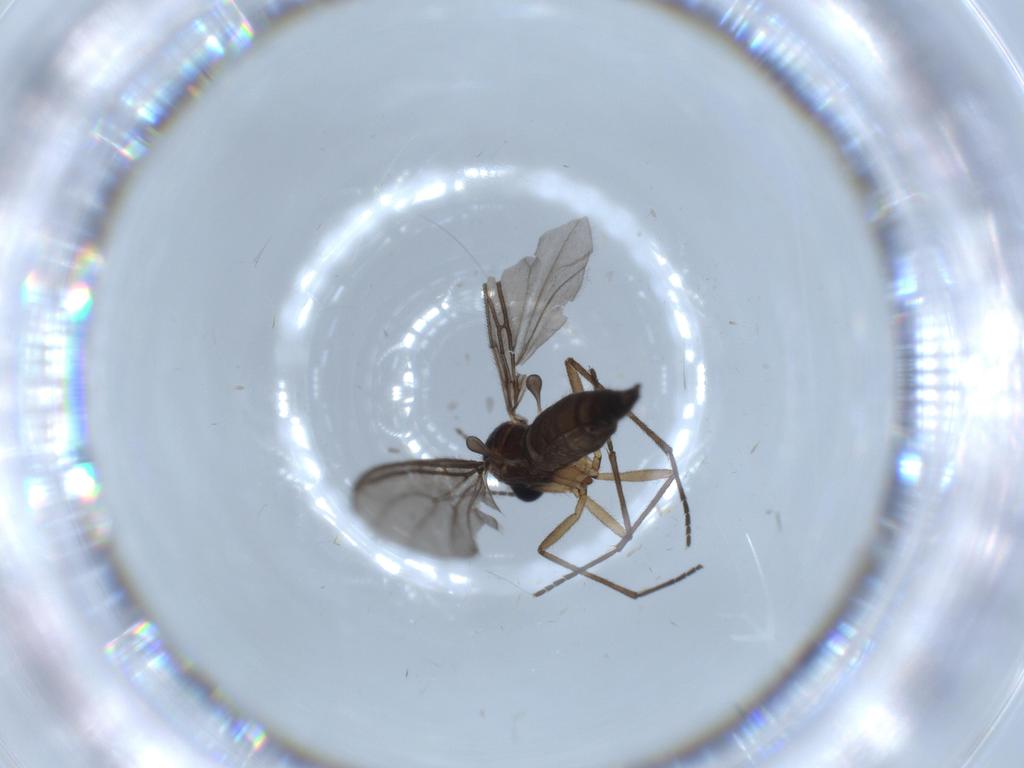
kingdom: Animalia
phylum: Arthropoda
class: Insecta
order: Diptera
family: Sciaridae
